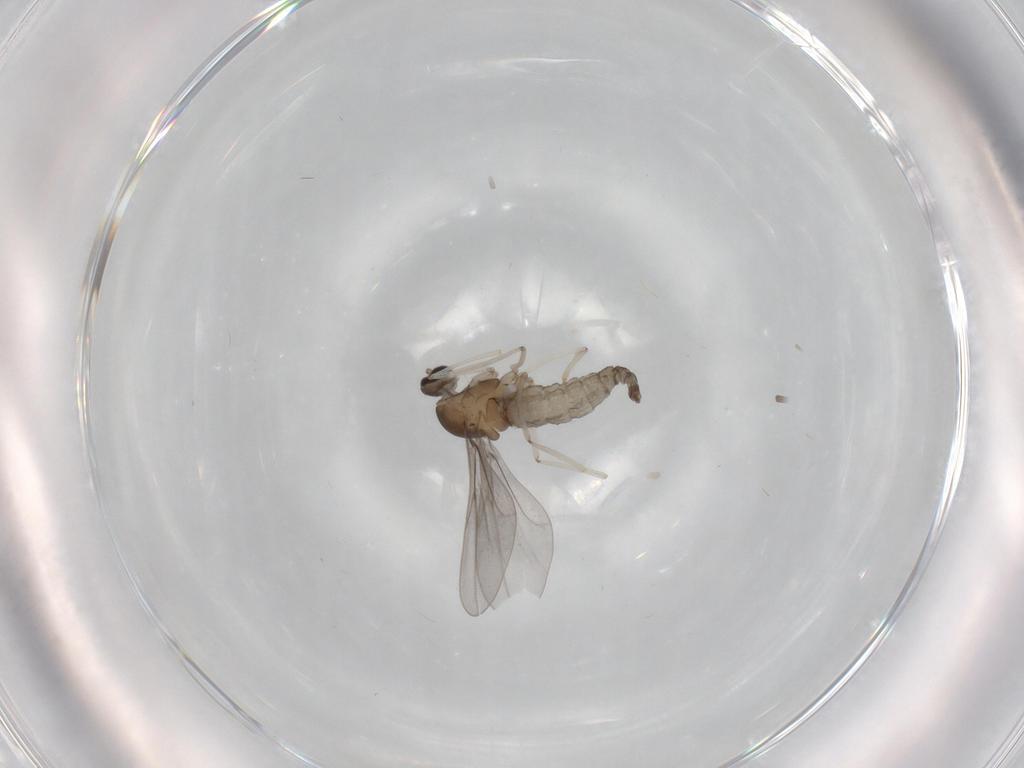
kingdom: Animalia
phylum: Arthropoda
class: Insecta
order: Diptera
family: Cecidomyiidae
